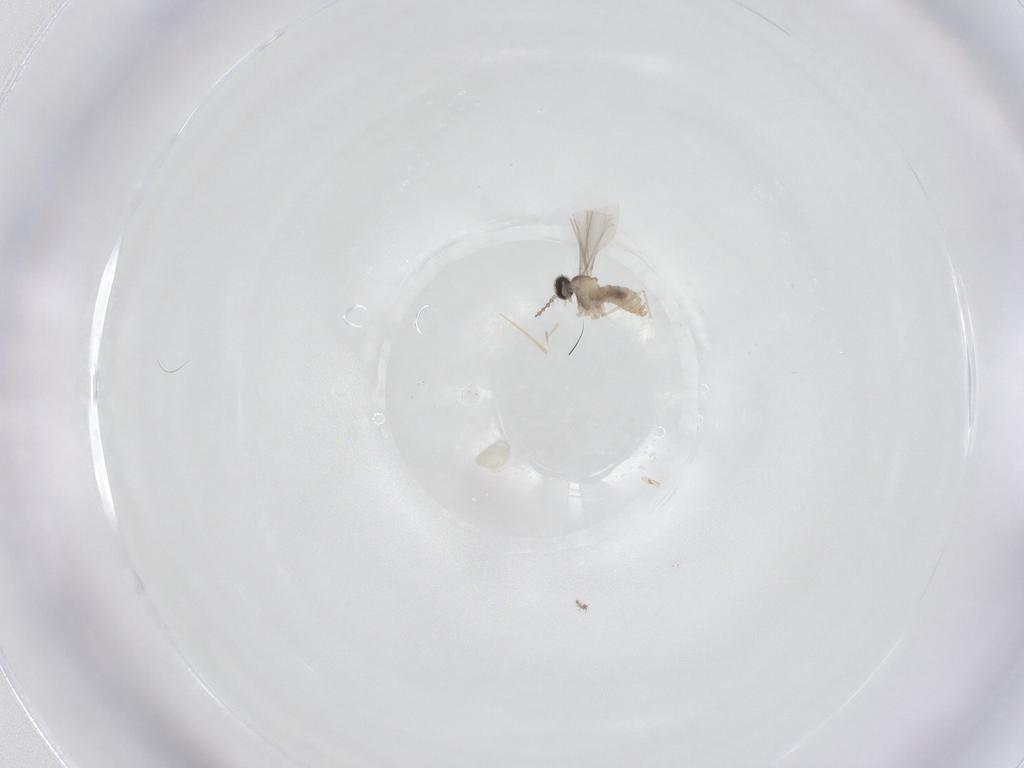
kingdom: Animalia
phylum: Arthropoda
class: Insecta
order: Diptera
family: Ceratopogonidae
